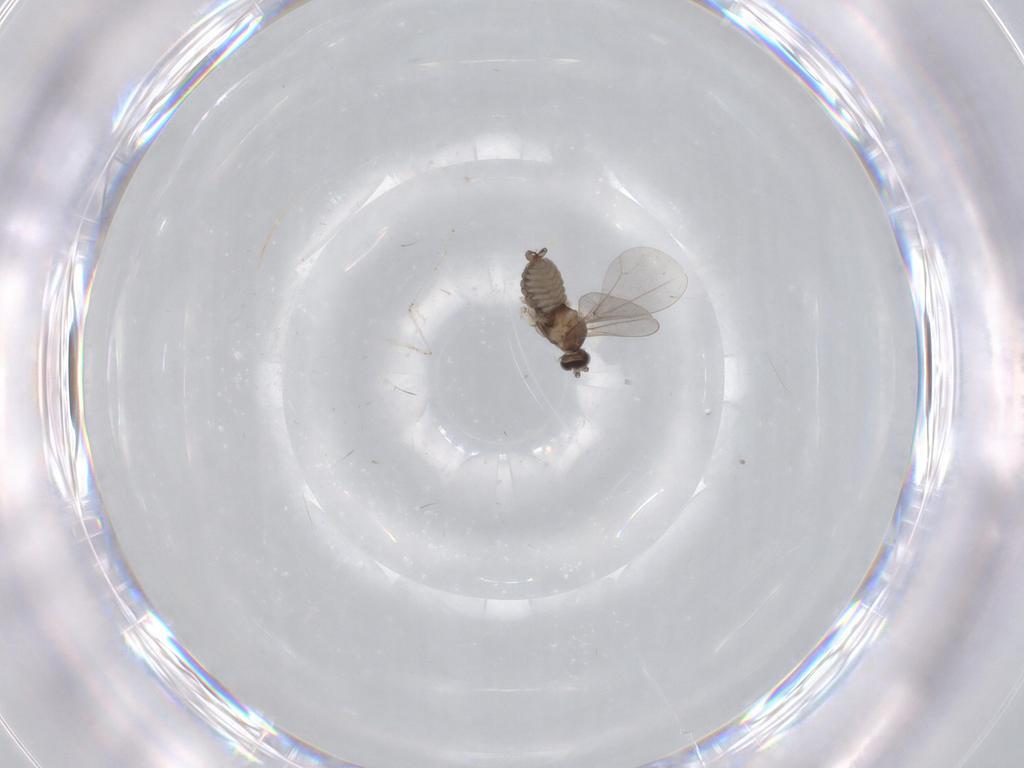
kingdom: Animalia
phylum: Arthropoda
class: Insecta
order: Diptera
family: Cecidomyiidae
